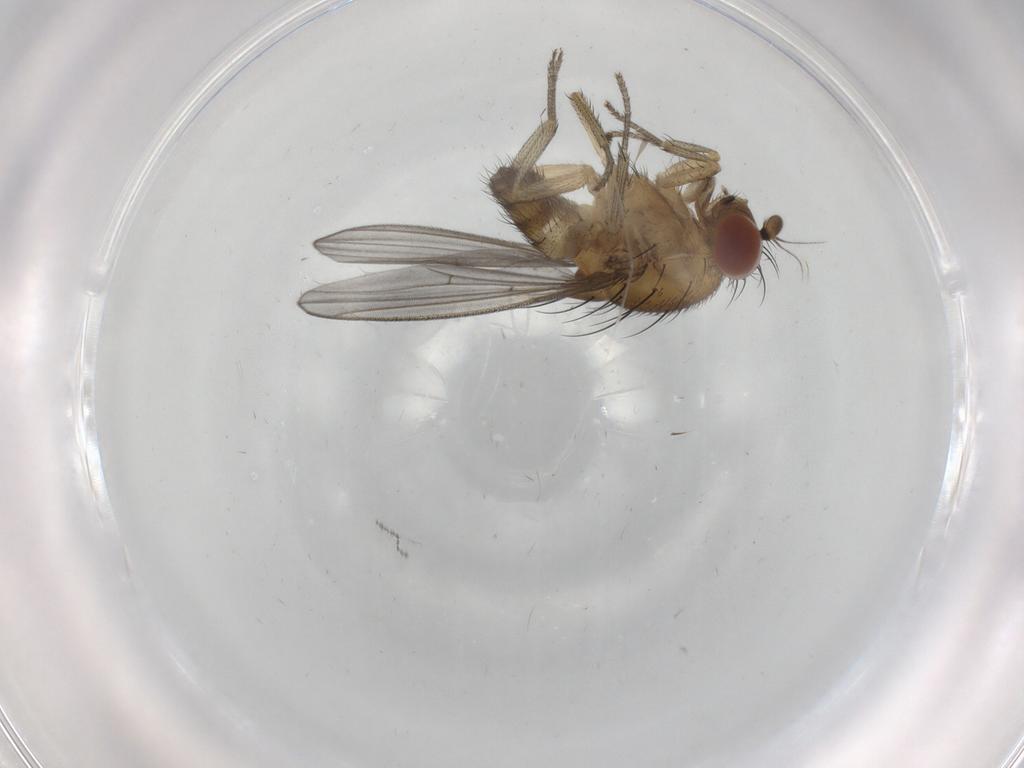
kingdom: Animalia
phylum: Arthropoda
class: Insecta
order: Diptera
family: Cecidomyiidae
